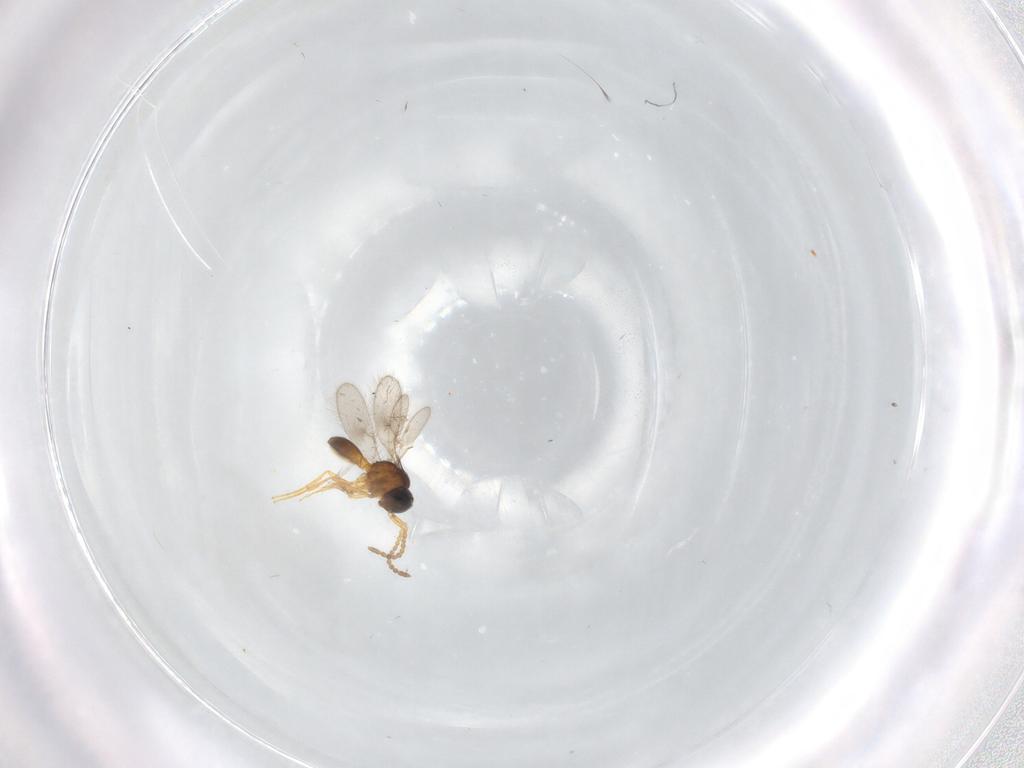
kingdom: Animalia
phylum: Arthropoda
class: Insecta
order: Hymenoptera
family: Scelionidae
